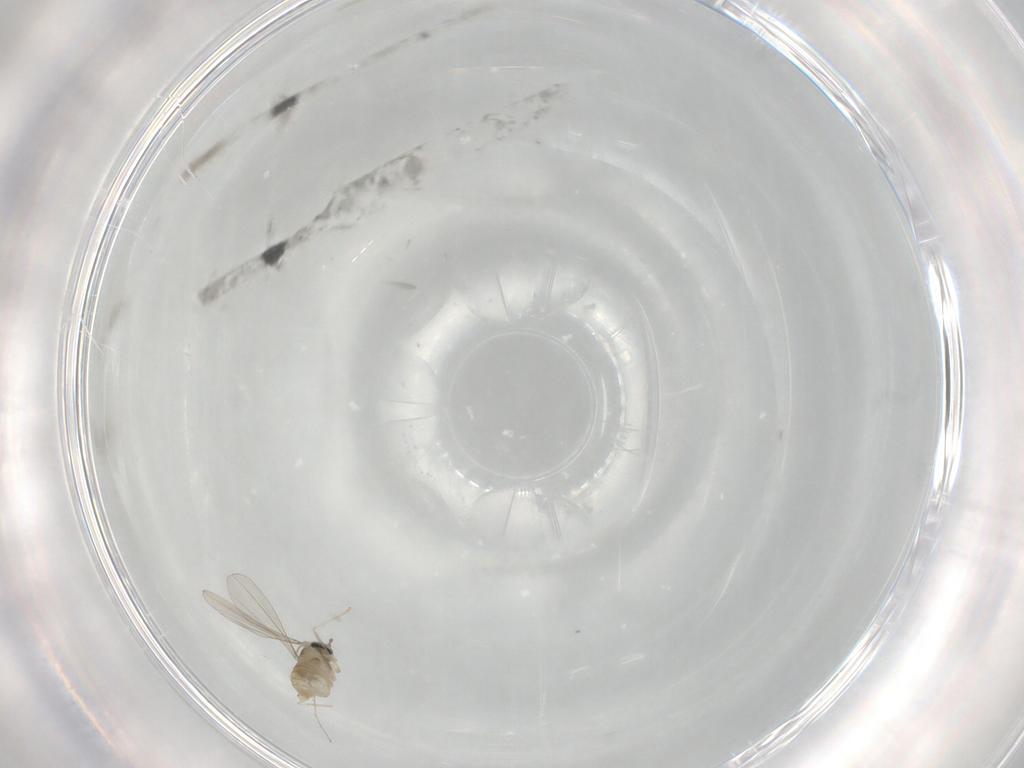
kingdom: Animalia
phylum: Arthropoda
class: Insecta
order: Diptera
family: Cecidomyiidae
